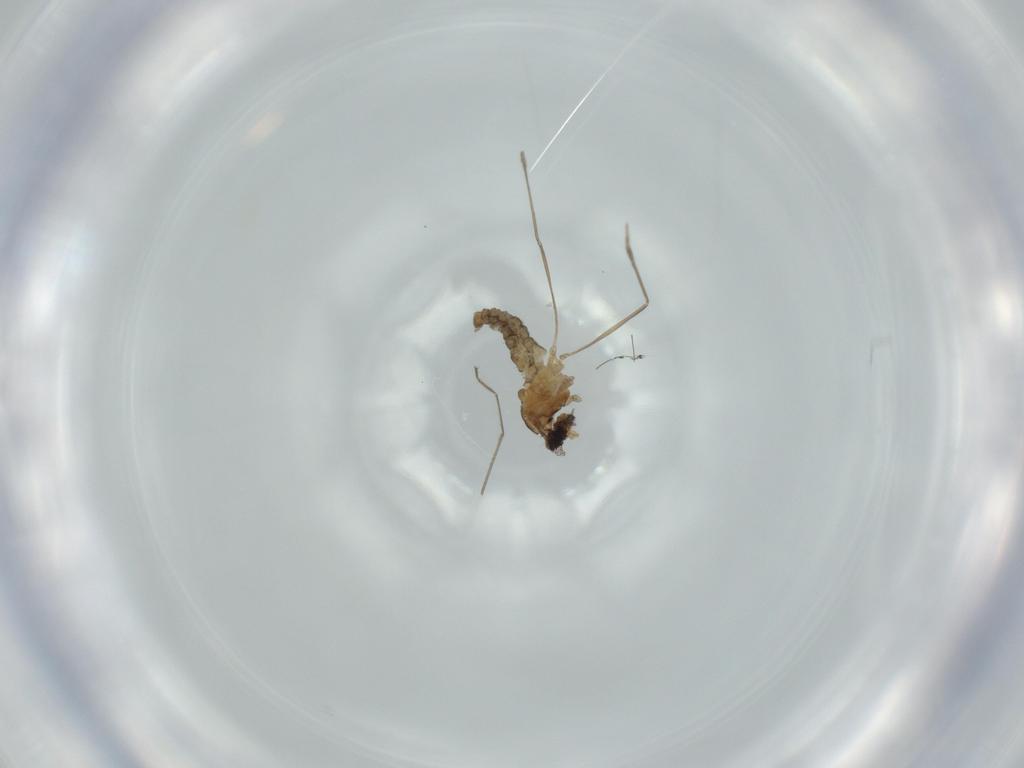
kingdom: Animalia
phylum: Arthropoda
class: Insecta
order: Diptera
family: Cecidomyiidae
